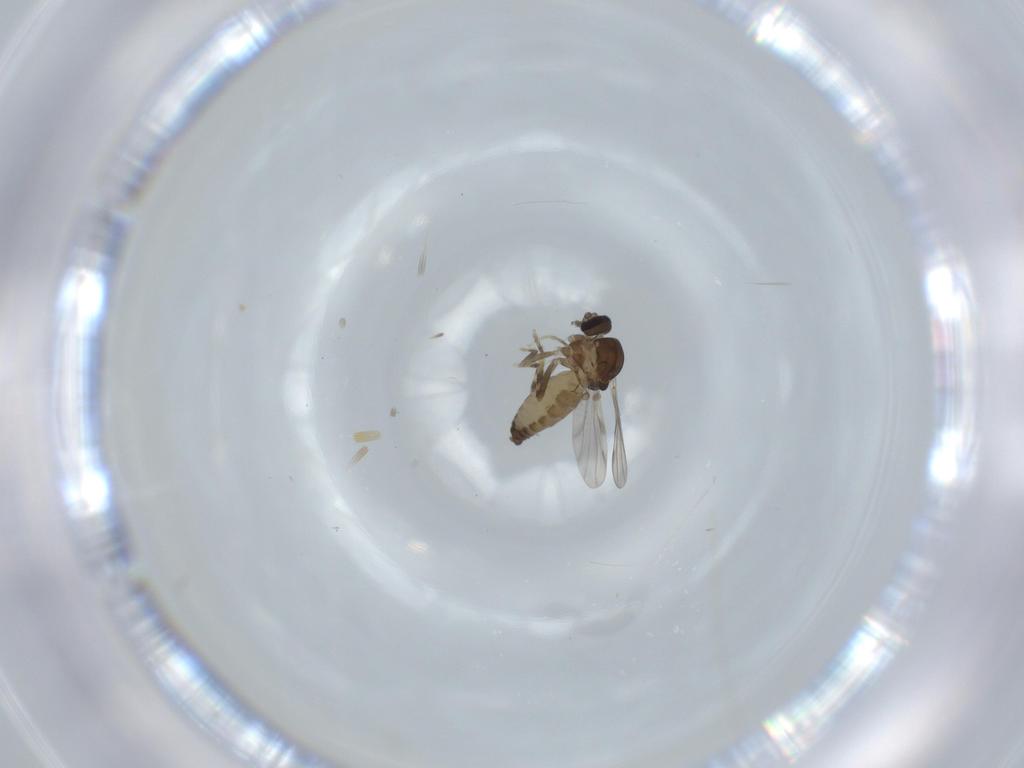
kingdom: Animalia
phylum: Arthropoda
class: Insecta
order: Diptera
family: Ceratopogonidae
